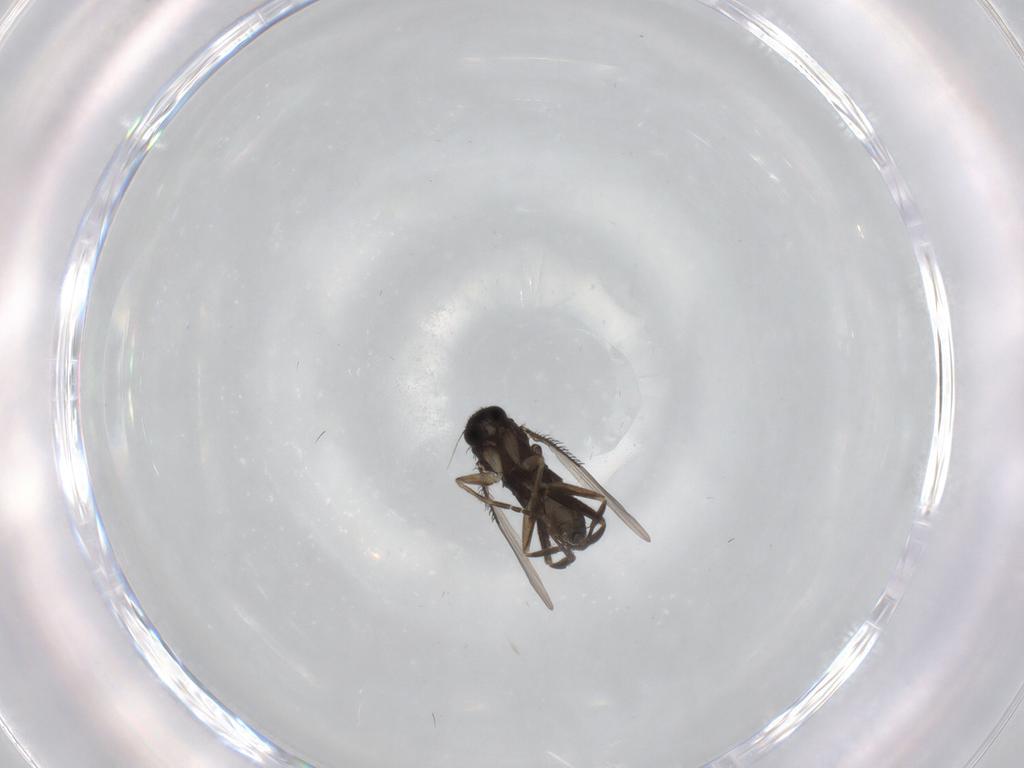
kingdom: Animalia
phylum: Arthropoda
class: Insecta
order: Diptera
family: Phoridae
